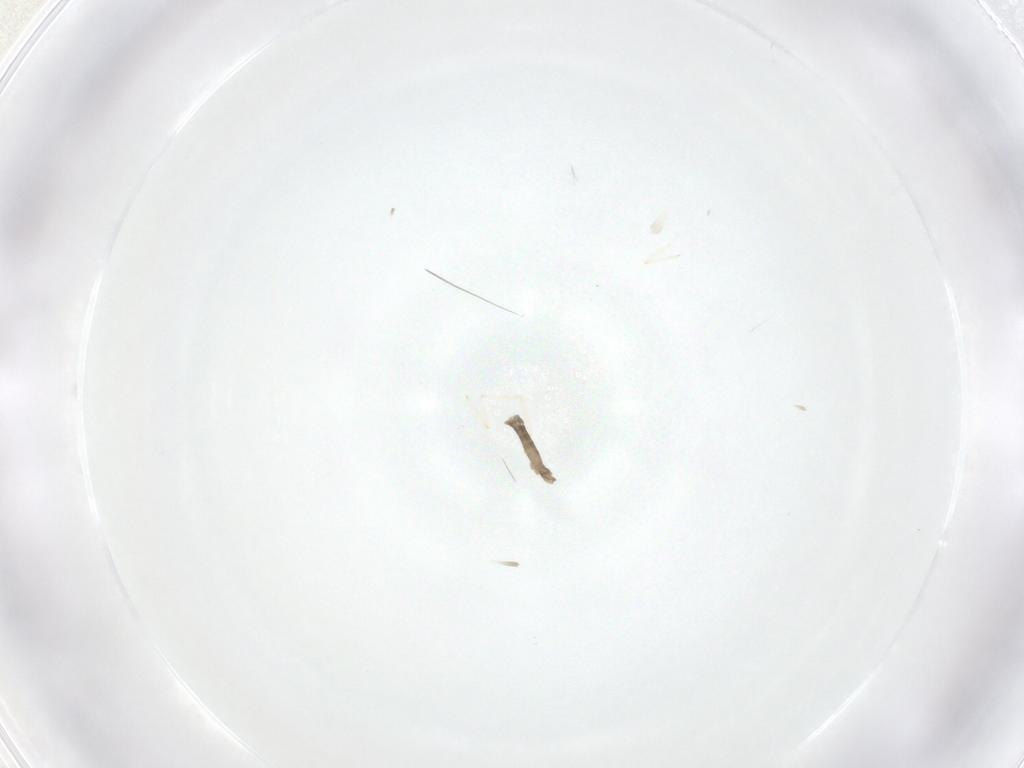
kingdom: Animalia
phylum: Arthropoda
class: Insecta
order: Diptera
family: Chironomidae
